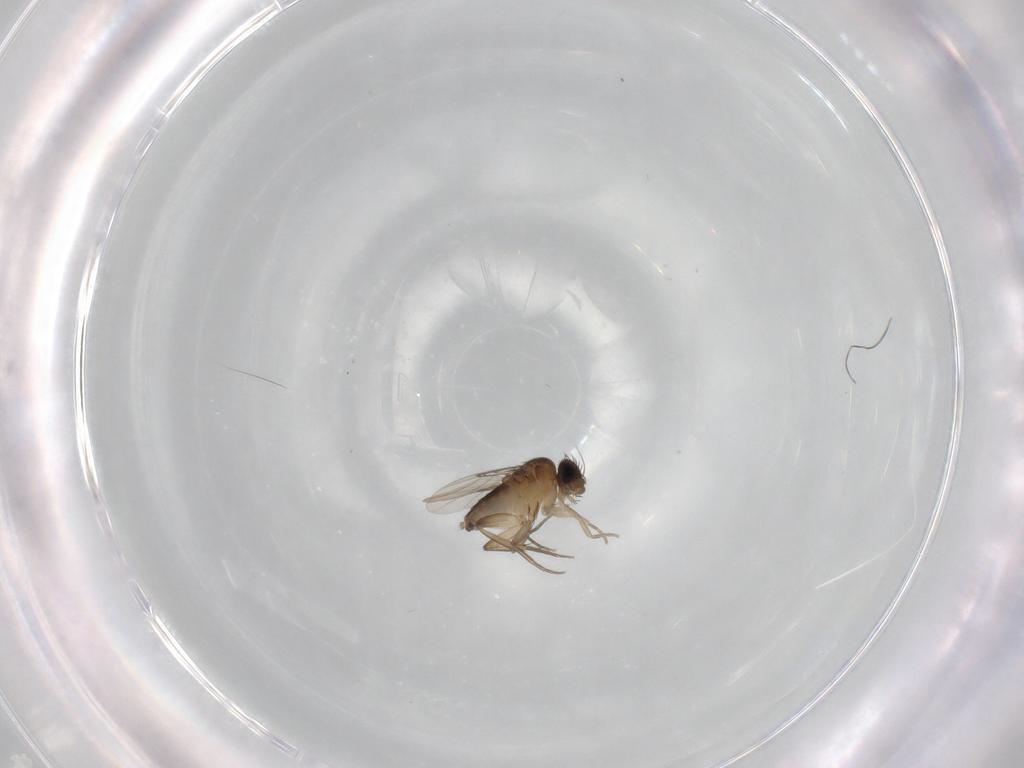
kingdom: Animalia
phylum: Arthropoda
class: Insecta
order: Diptera
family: Phoridae
